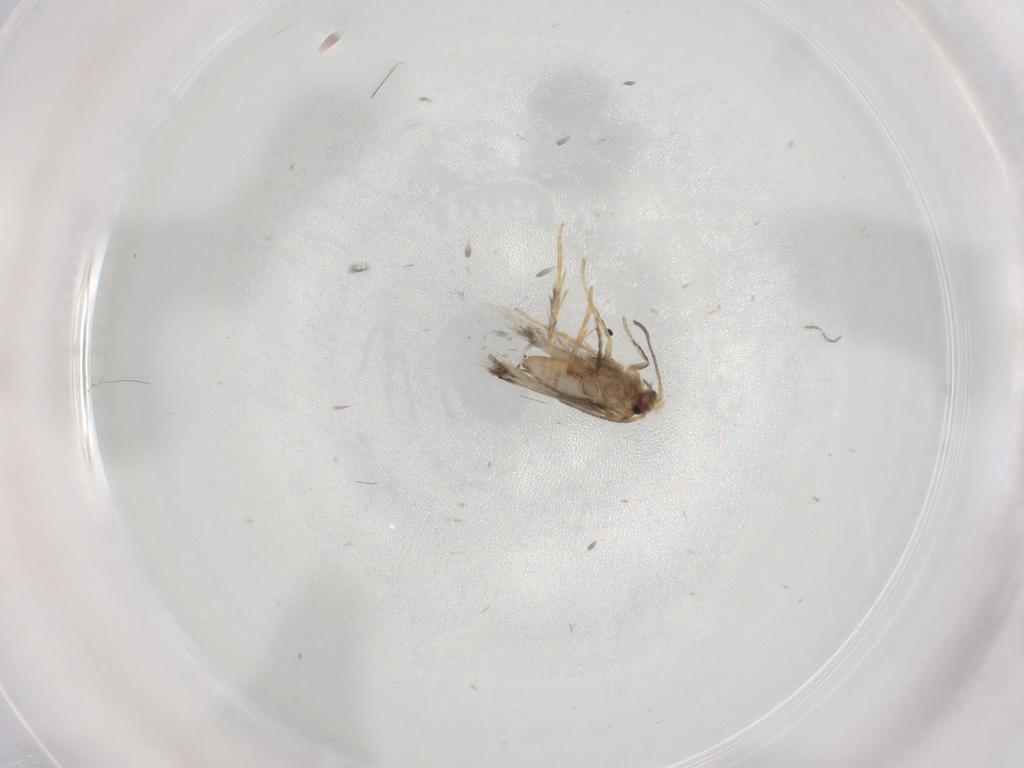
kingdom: Animalia
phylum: Arthropoda
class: Insecta
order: Lepidoptera
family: Nepticulidae
